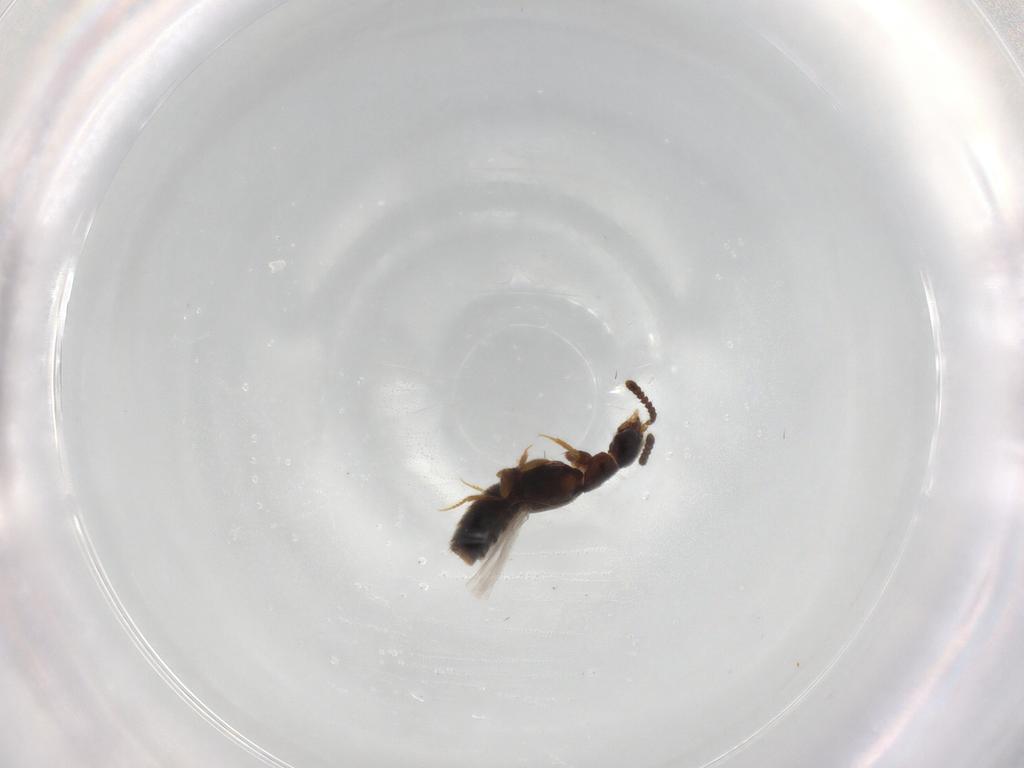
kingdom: Animalia
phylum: Arthropoda
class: Insecta
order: Coleoptera
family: Staphylinidae
